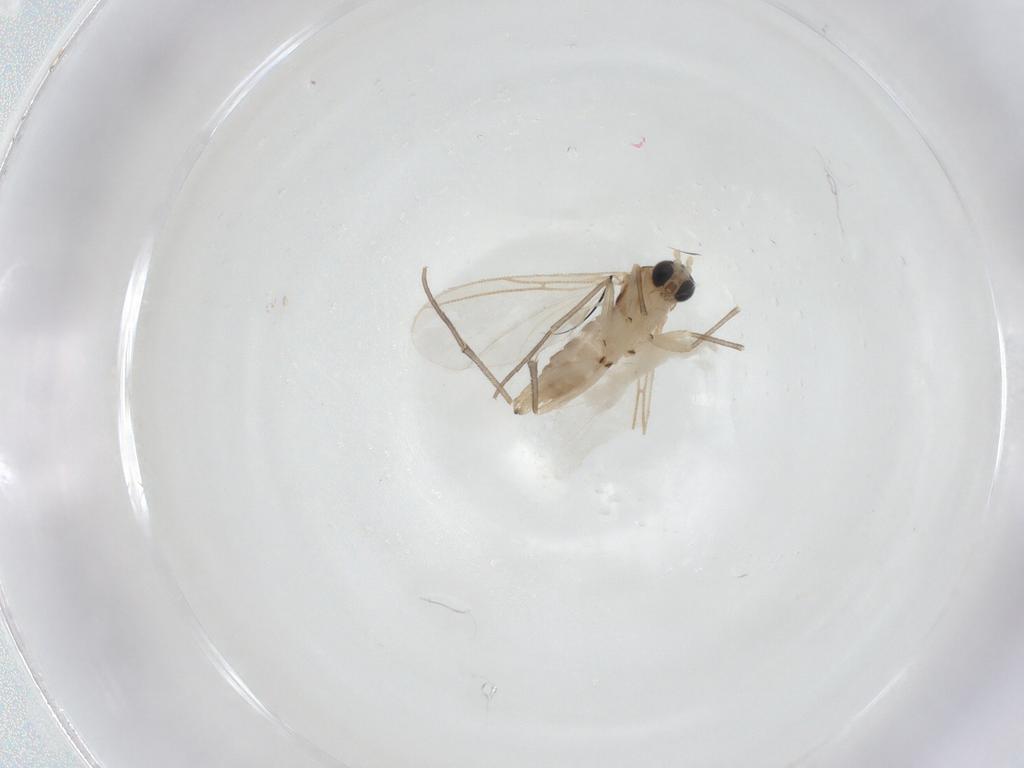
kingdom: Animalia
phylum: Arthropoda
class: Insecta
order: Diptera
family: Sciaridae
